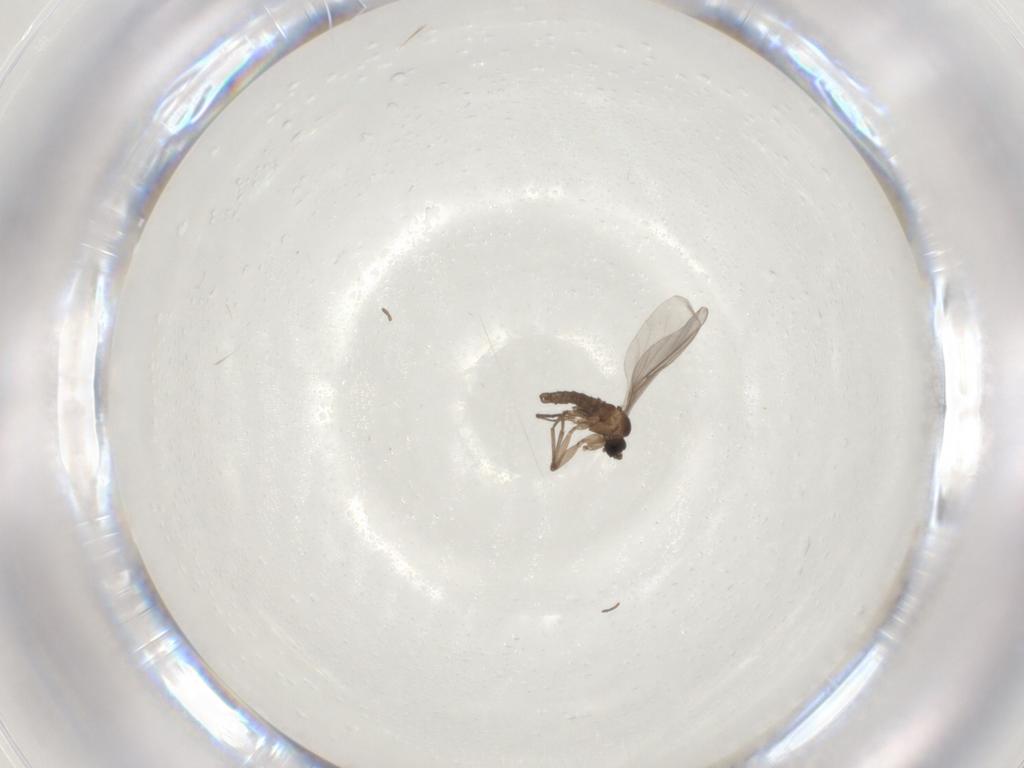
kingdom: Animalia
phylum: Arthropoda
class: Insecta
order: Diptera
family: Sciaridae
